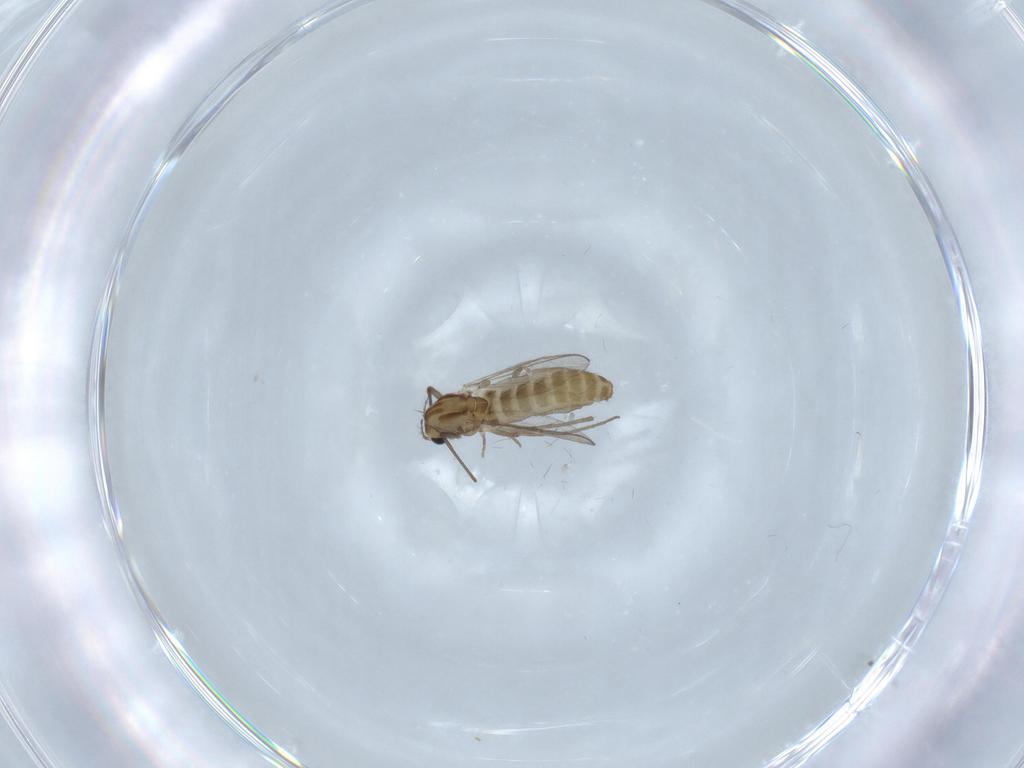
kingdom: Animalia
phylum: Arthropoda
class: Insecta
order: Diptera
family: Chironomidae
